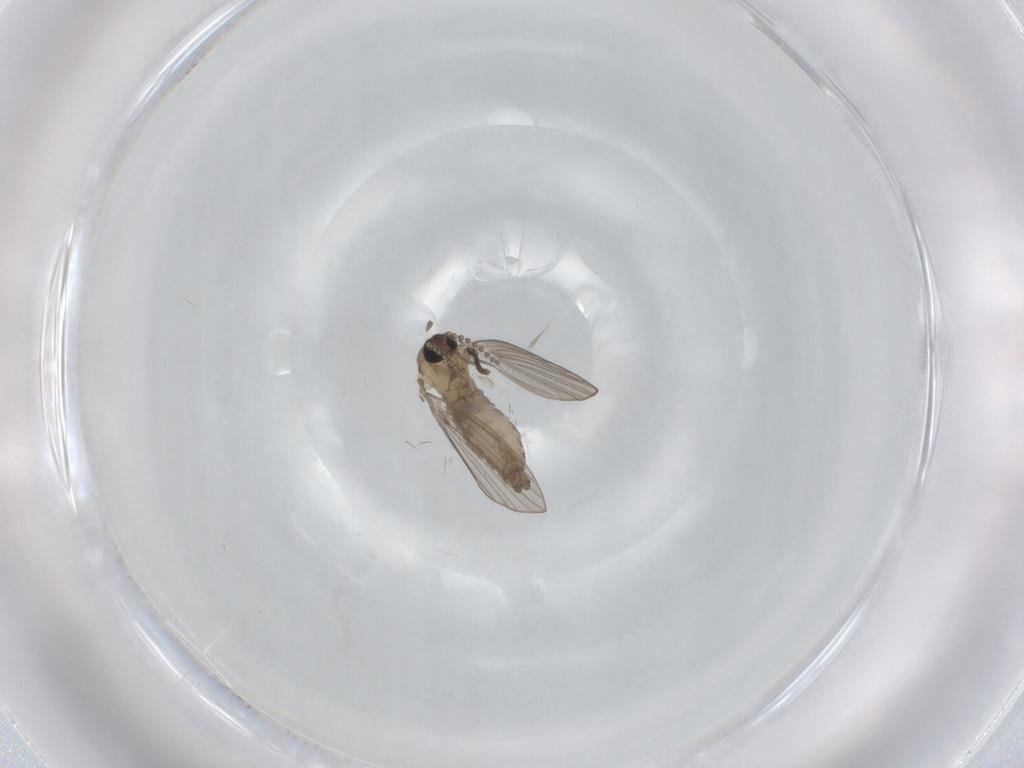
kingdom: Animalia
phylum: Arthropoda
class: Insecta
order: Diptera
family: Psychodidae
